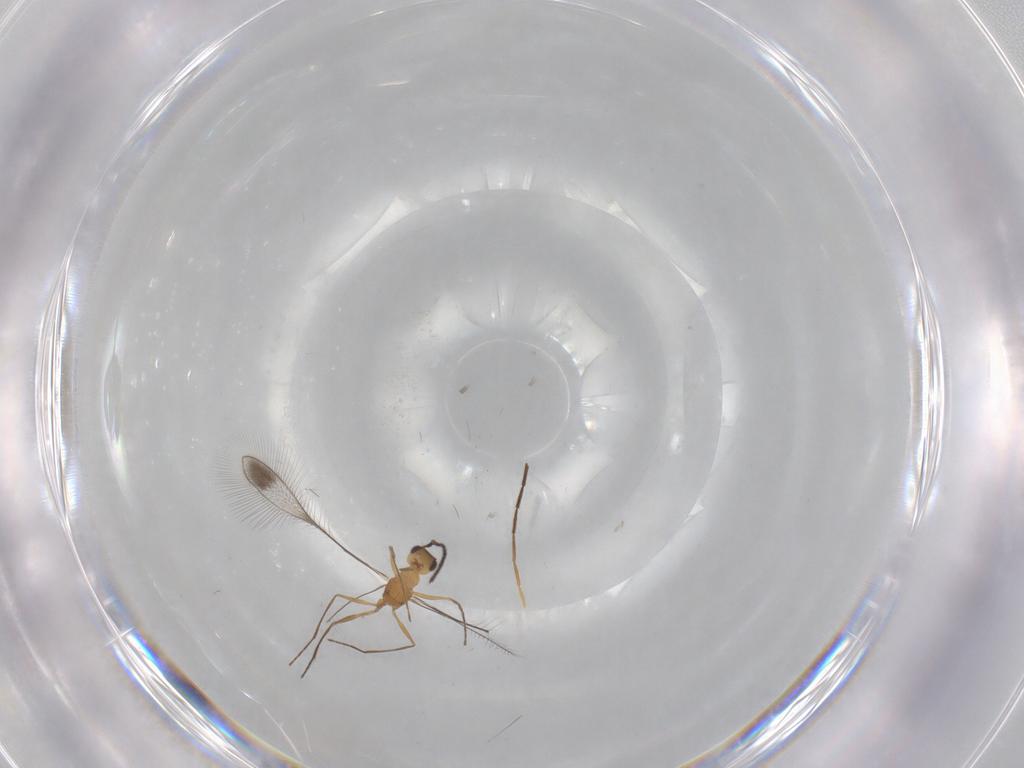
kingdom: Animalia
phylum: Arthropoda
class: Insecta
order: Hymenoptera
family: Mymaridae
